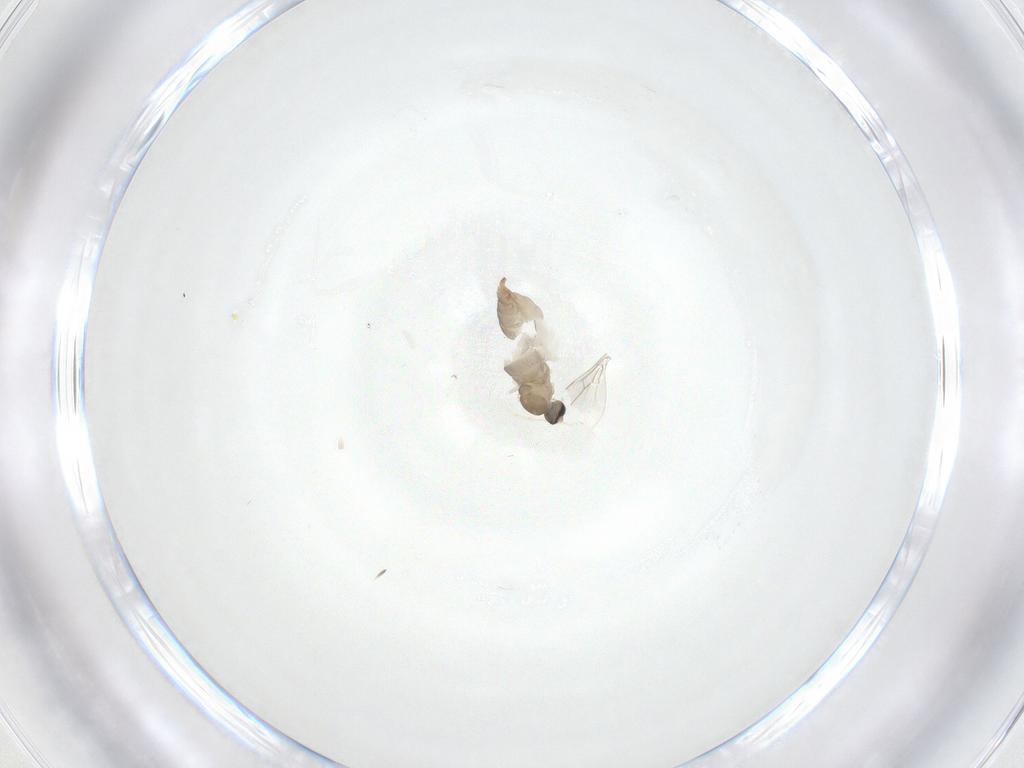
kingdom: Animalia
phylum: Arthropoda
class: Insecta
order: Diptera
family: Cecidomyiidae
